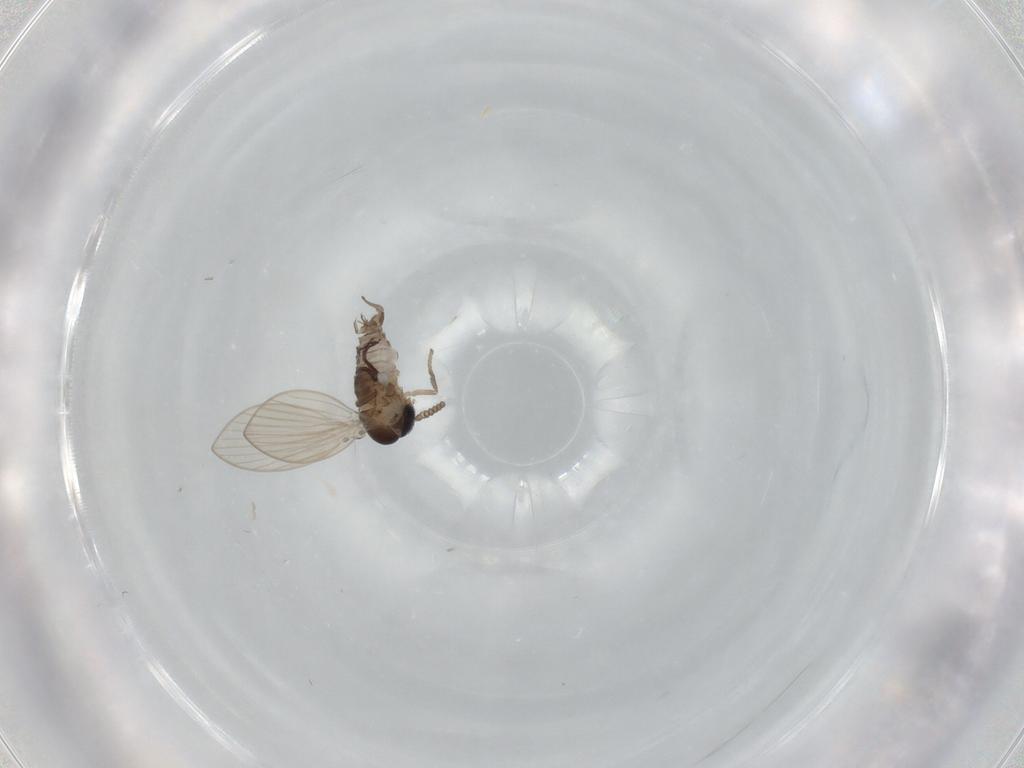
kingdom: Animalia
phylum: Arthropoda
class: Insecta
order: Diptera
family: Psychodidae
